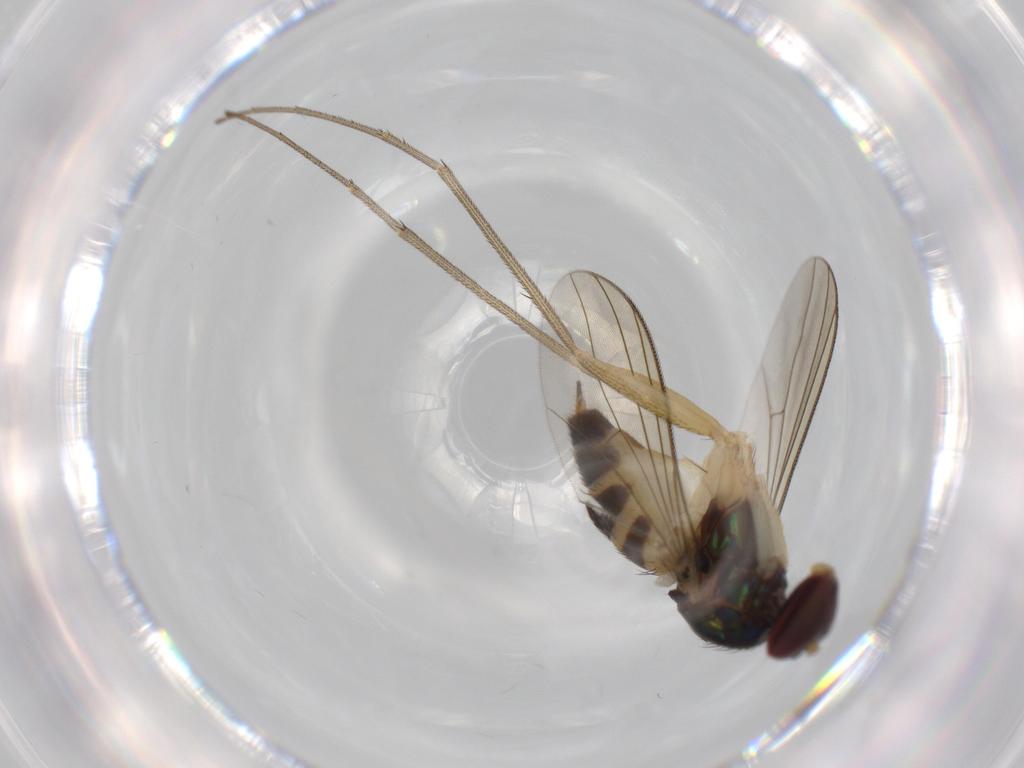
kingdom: Animalia
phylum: Arthropoda
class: Insecta
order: Diptera
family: Dolichopodidae
